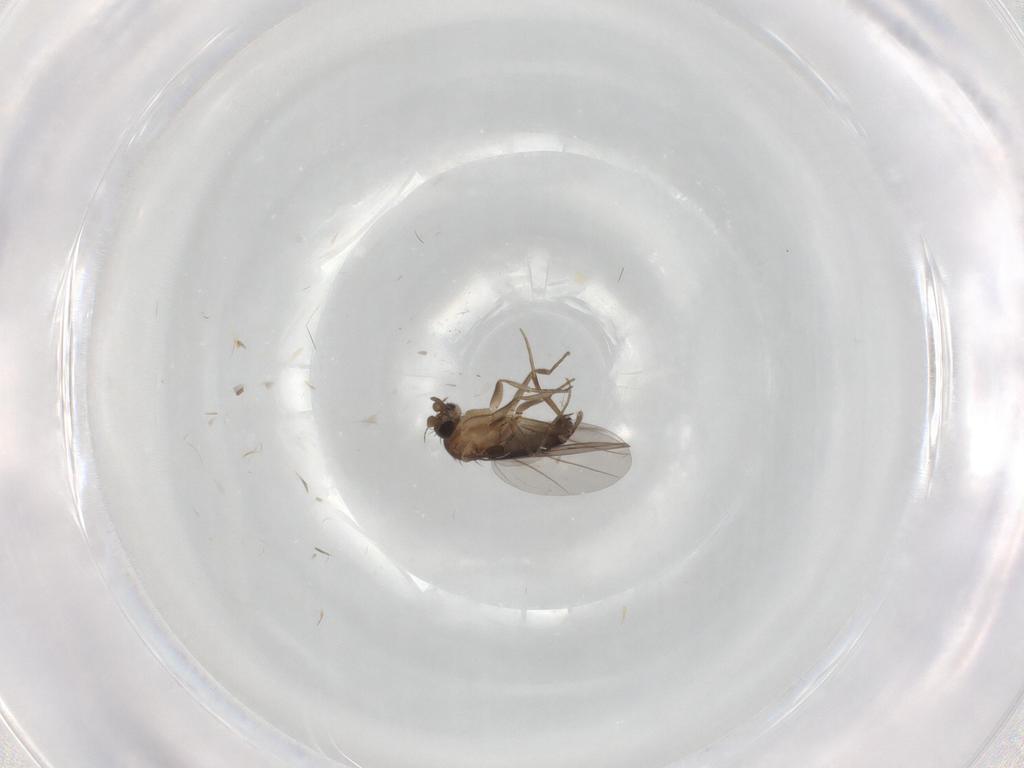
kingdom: Animalia
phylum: Arthropoda
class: Insecta
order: Diptera
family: Phoridae
